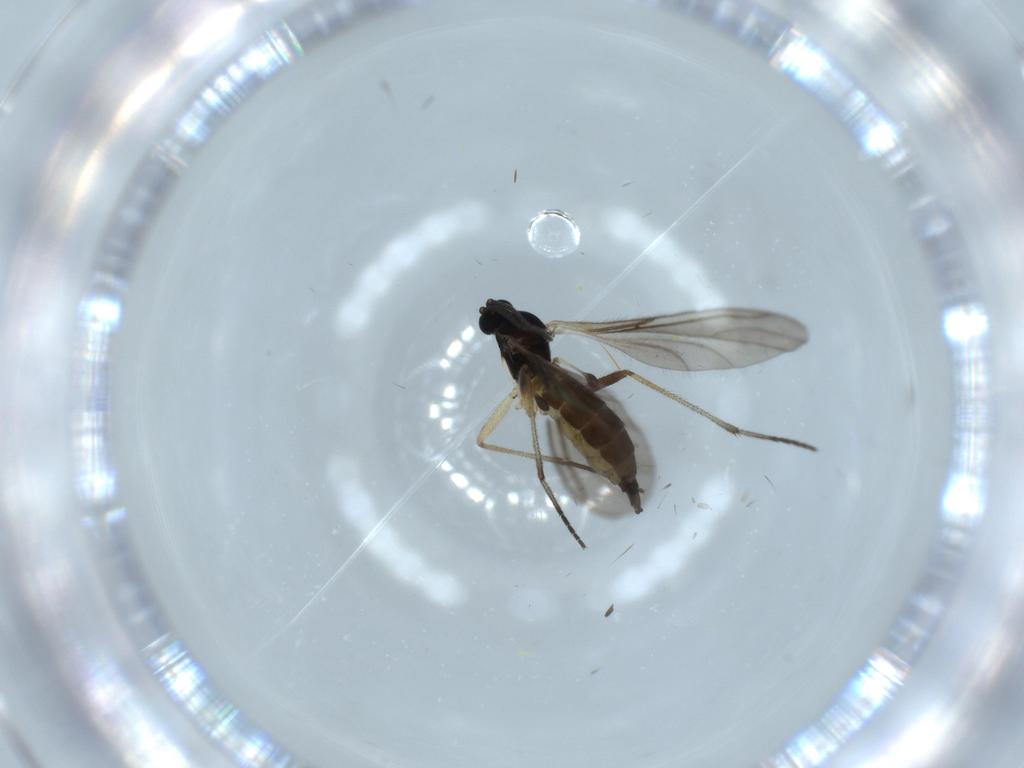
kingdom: Animalia
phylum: Arthropoda
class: Insecta
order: Diptera
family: Sciaridae
